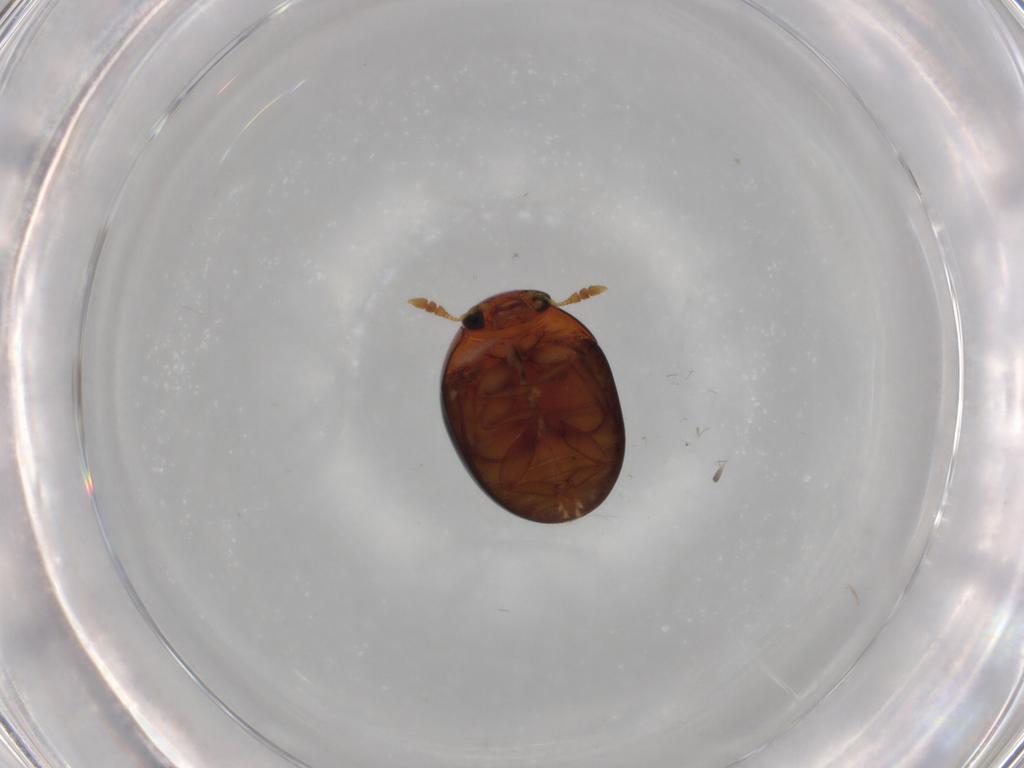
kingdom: Animalia
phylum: Arthropoda
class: Insecta
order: Coleoptera
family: Phalacridae
